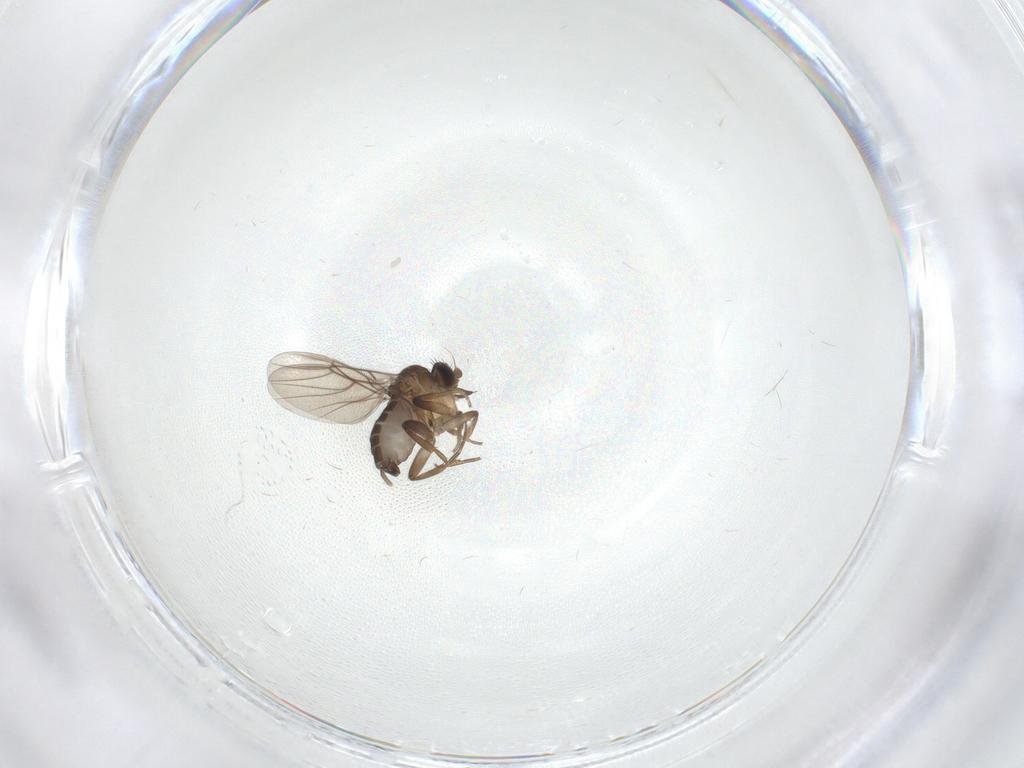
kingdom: Animalia
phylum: Arthropoda
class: Insecta
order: Diptera
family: Phoridae
